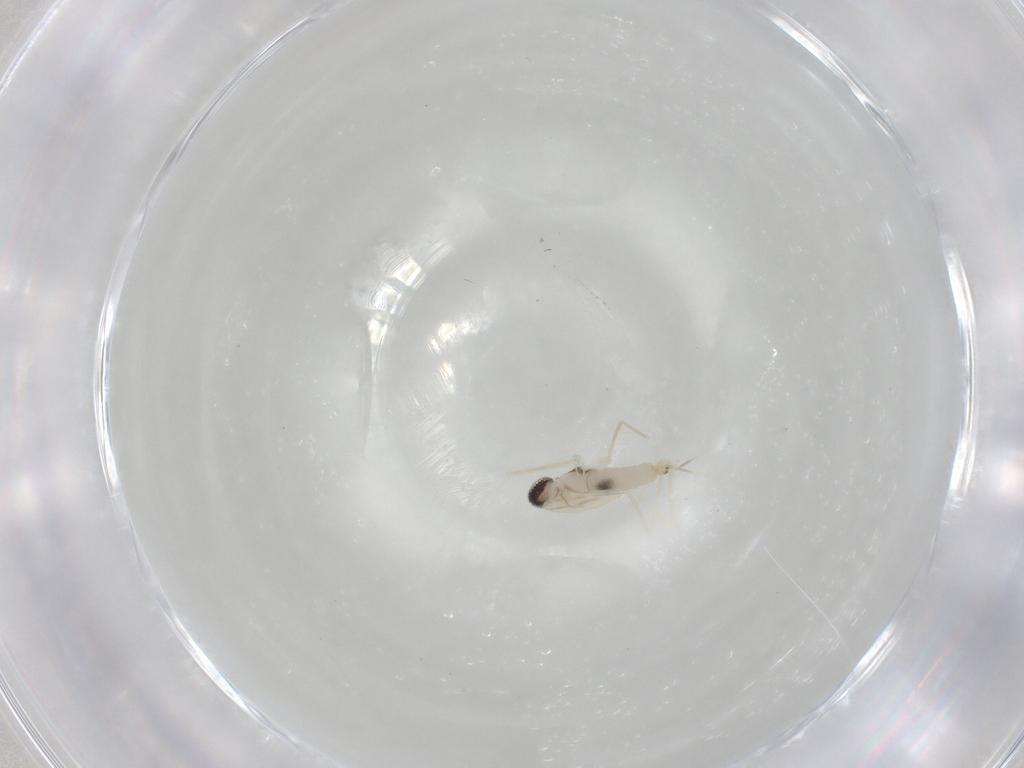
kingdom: Animalia
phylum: Arthropoda
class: Insecta
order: Diptera
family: Cecidomyiidae
